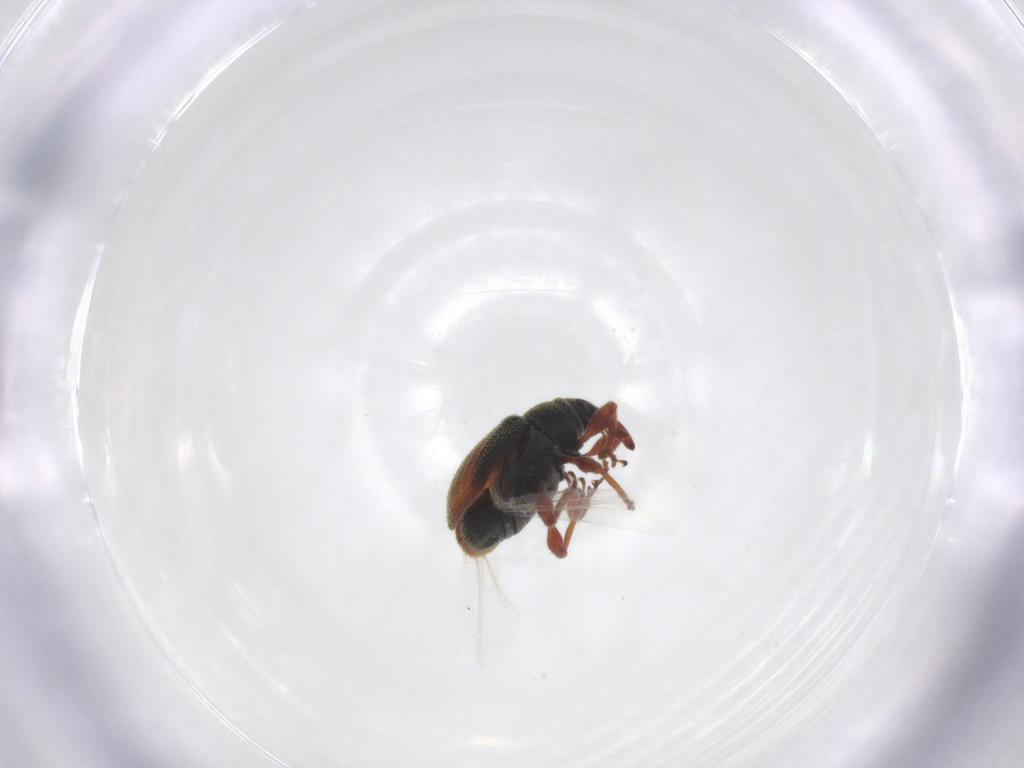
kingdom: Animalia
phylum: Arthropoda
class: Insecta
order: Coleoptera
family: Curculionidae
